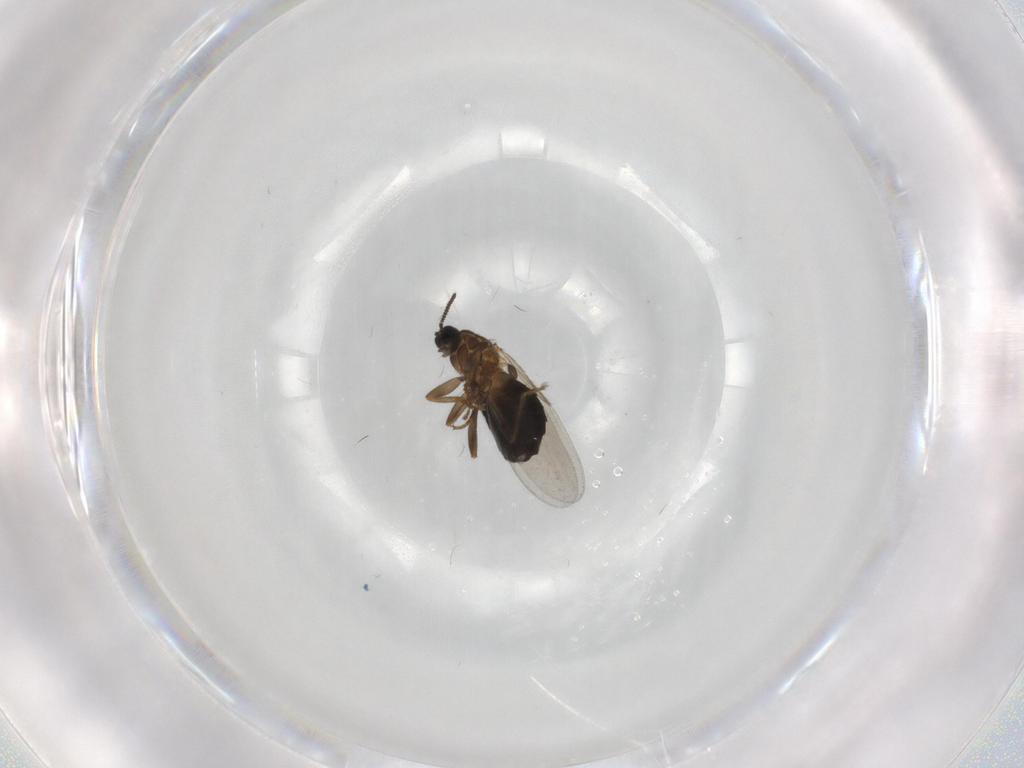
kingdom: Animalia
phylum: Arthropoda
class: Insecta
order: Diptera
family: Scatopsidae
